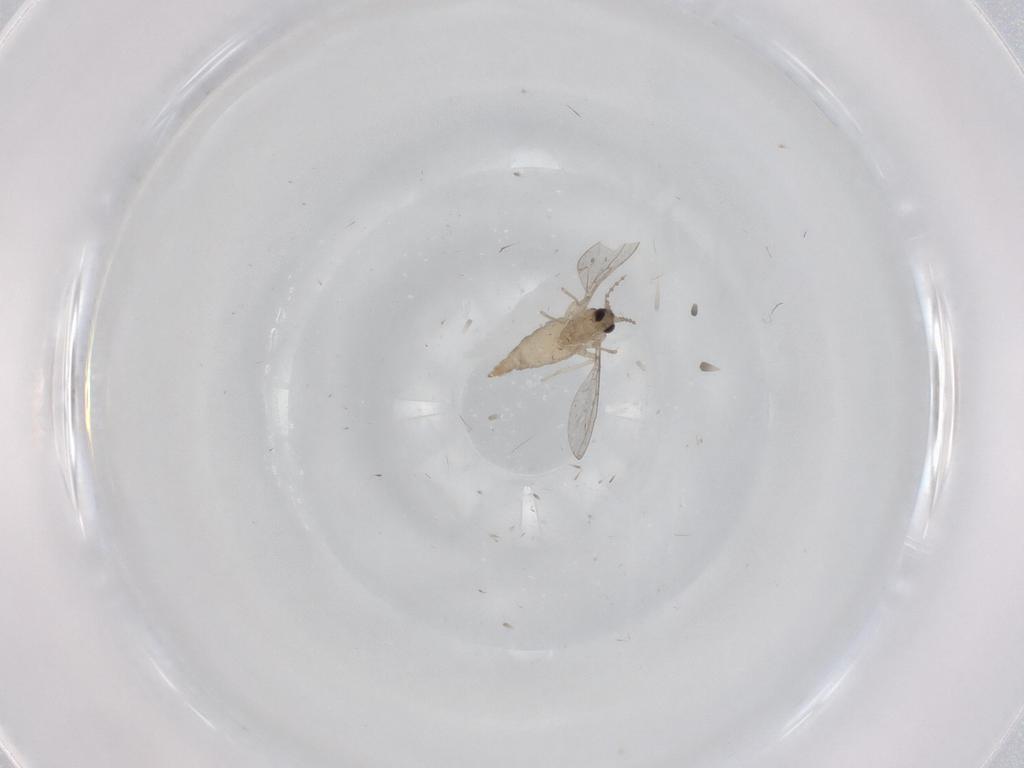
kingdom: Animalia
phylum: Arthropoda
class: Insecta
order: Diptera
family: Cecidomyiidae
